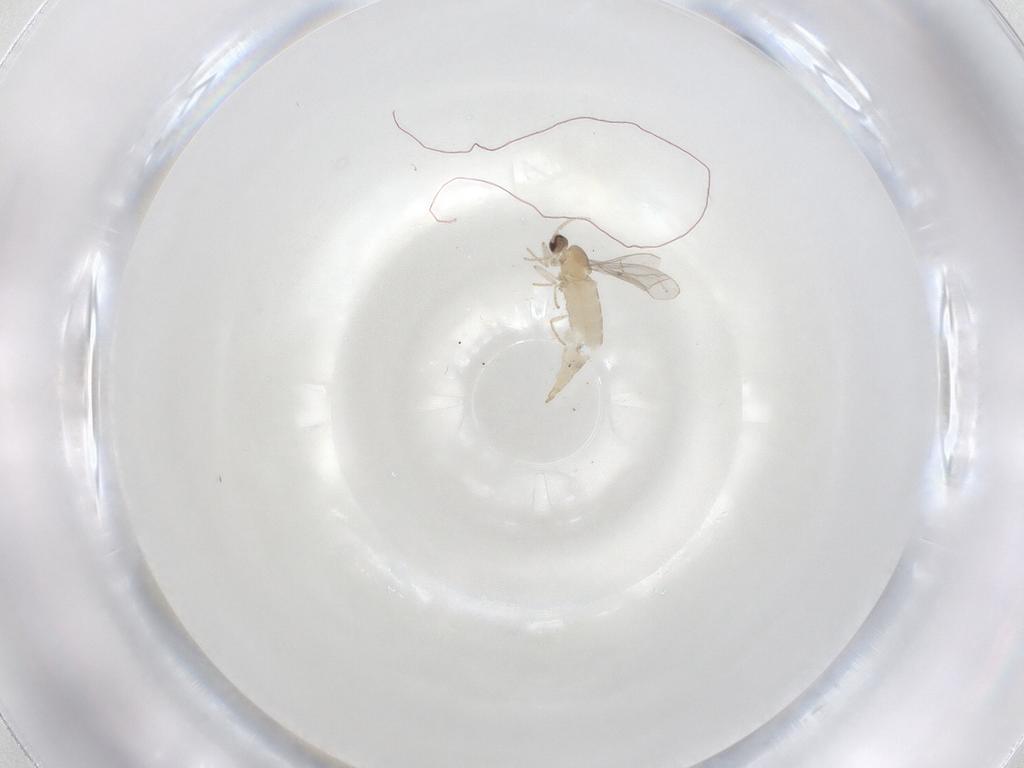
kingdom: Animalia
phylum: Arthropoda
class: Insecta
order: Diptera
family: Cecidomyiidae
